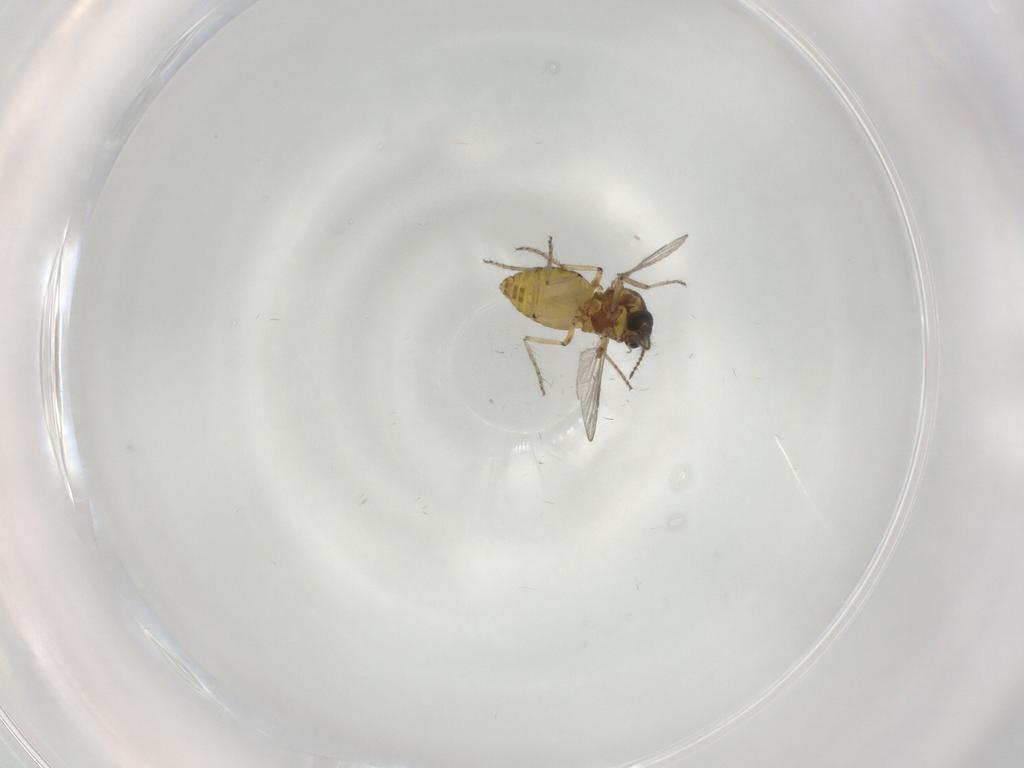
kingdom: Animalia
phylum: Arthropoda
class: Insecta
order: Diptera
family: Ceratopogonidae
